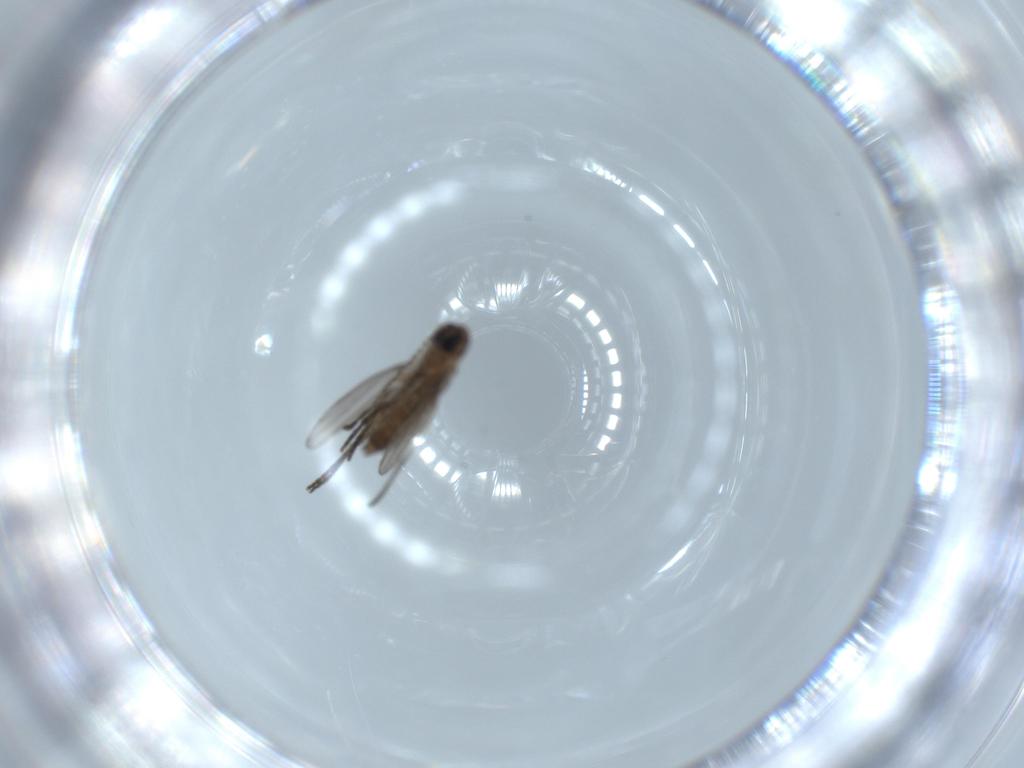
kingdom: Animalia
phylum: Arthropoda
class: Insecta
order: Diptera
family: Psychodidae
